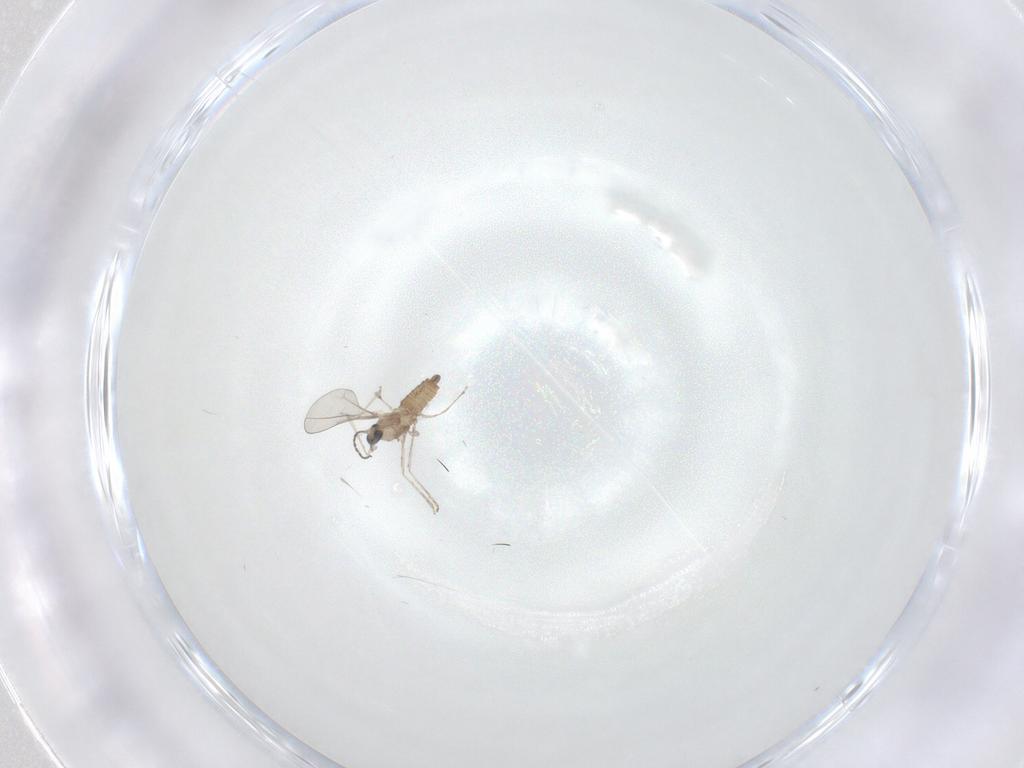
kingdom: Animalia
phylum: Arthropoda
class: Insecta
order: Diptera
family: Cecidomyiidae
